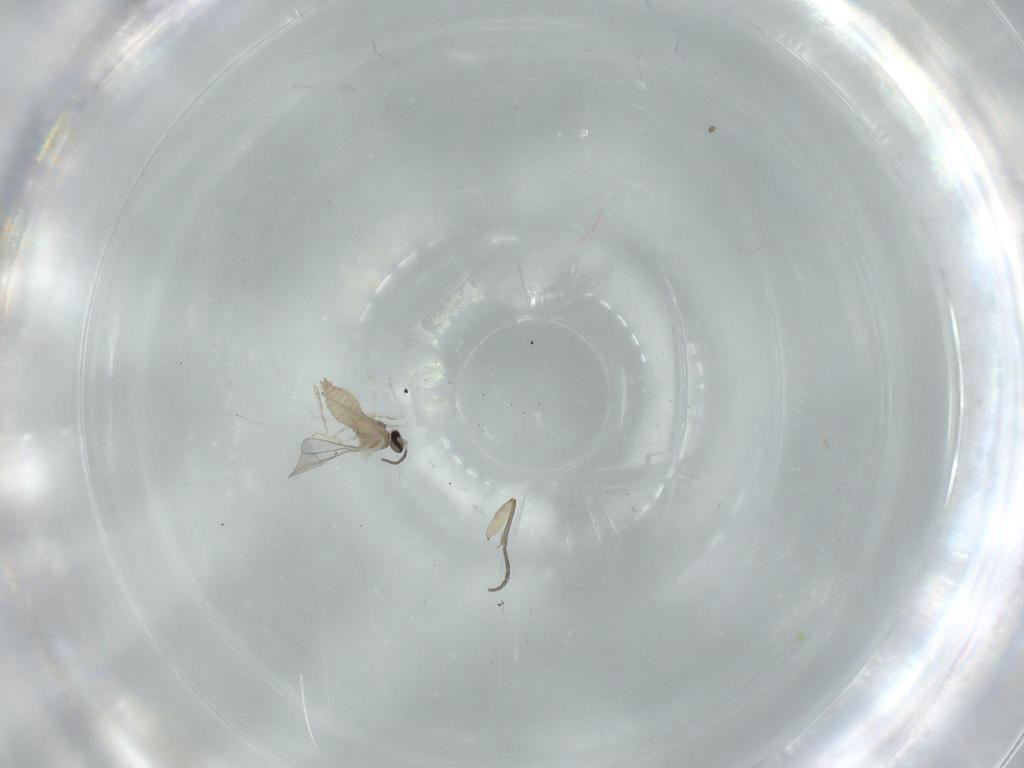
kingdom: Animalia
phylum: Arthropoda
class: Insecta
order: Diptera
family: Cecidomyiidae
